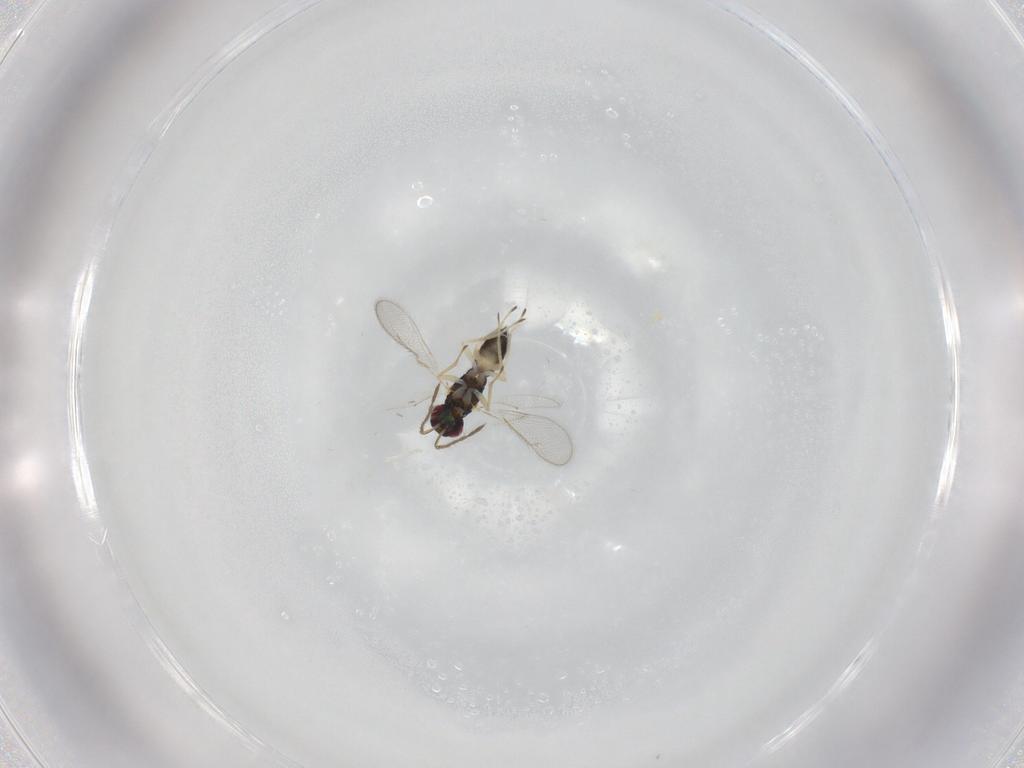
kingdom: Animalia
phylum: Arthropoda
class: Insecta
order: Hymenoptera
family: Eulophidae
